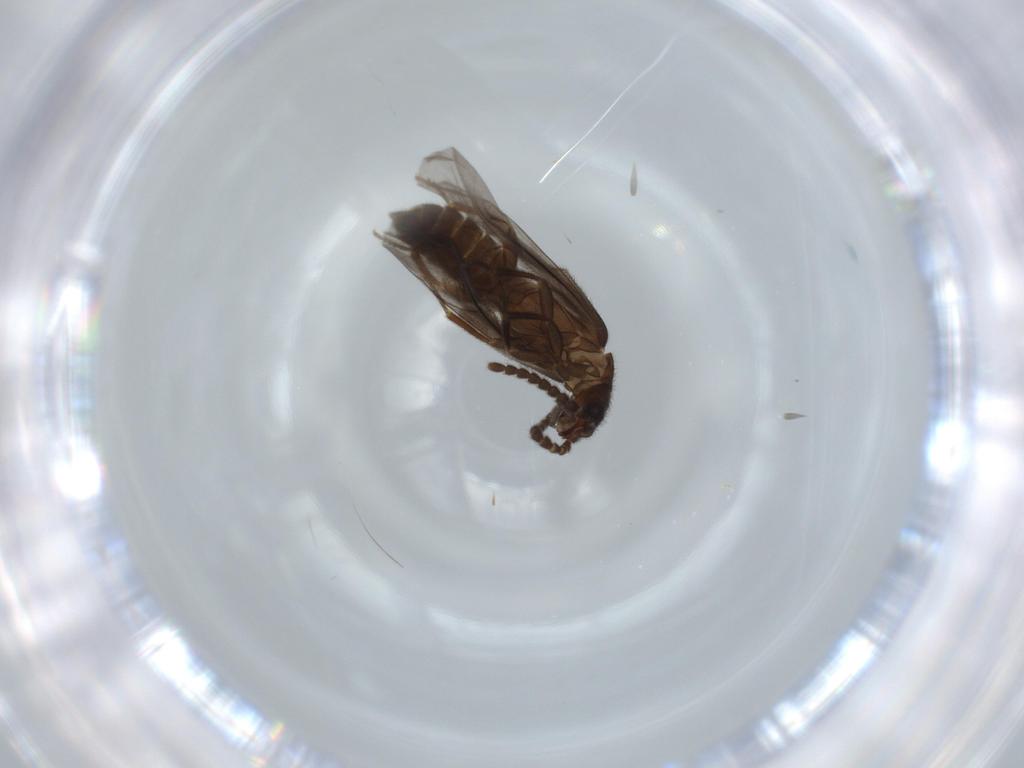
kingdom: Animalia
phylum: Arthropoda
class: Insecta
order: Coleoptera
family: Omethidae
